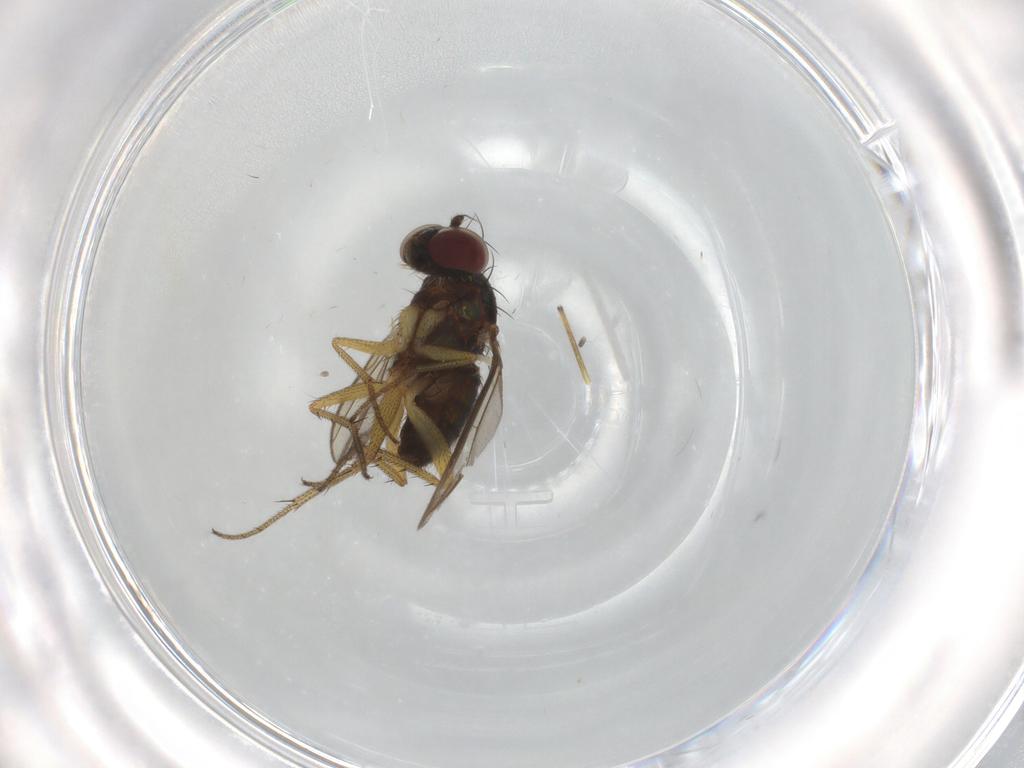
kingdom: Animalia
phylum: Arthropoda
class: Insecta
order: Diptera
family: Dolichopodidae
